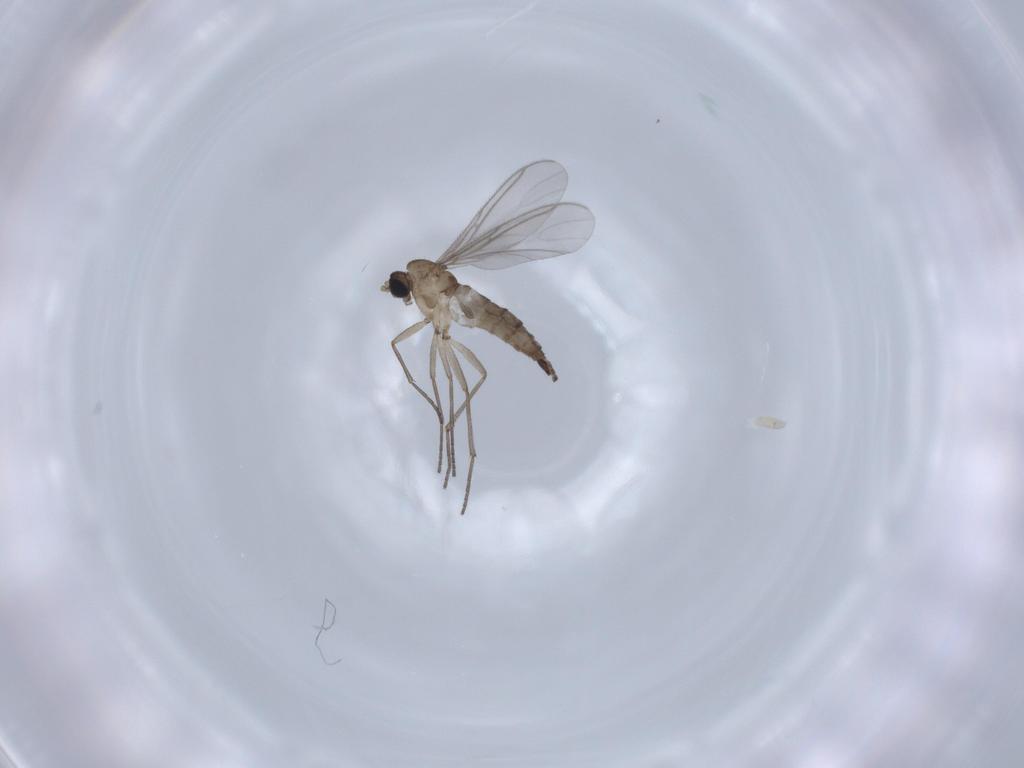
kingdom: Animalia
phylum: Arthropoda
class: Insecta
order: Diptera
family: Sciaridae
